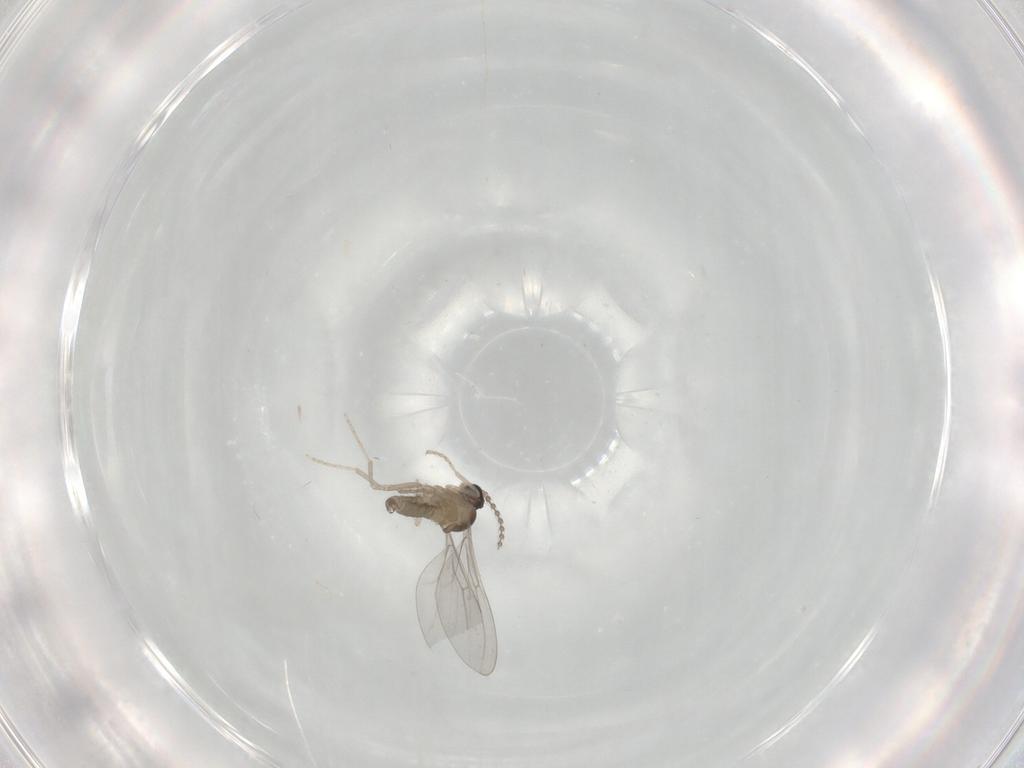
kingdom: Animalia
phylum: Arthropoda
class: Insecta
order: Diptera
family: Cecidomyiidae
